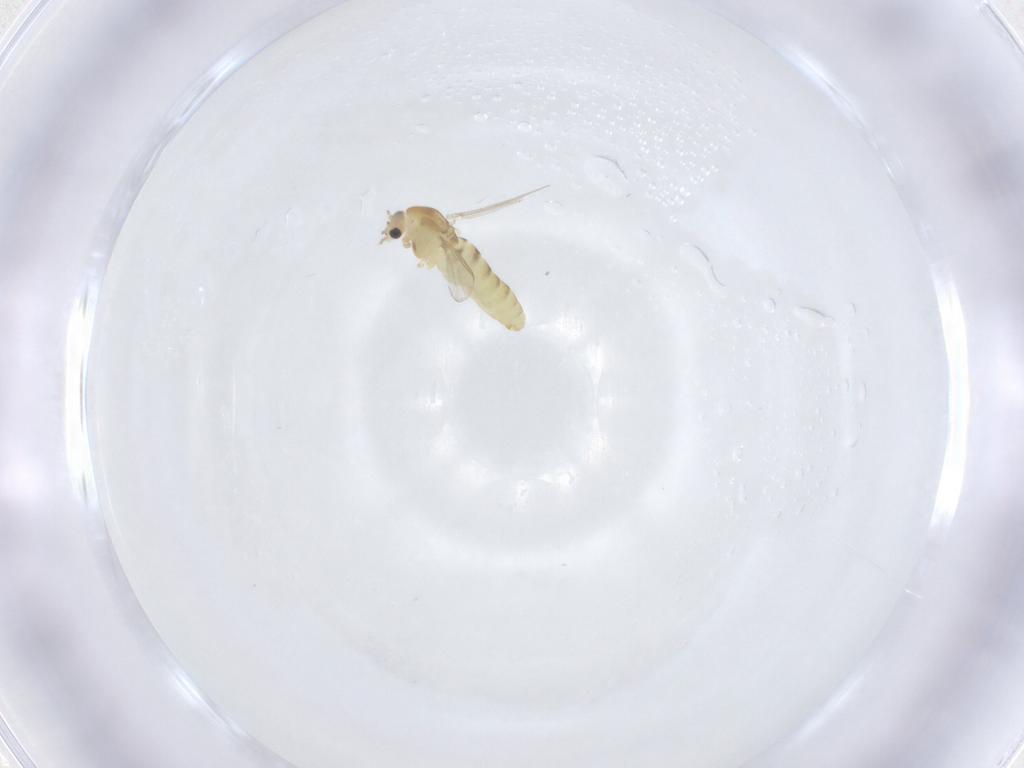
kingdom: Animalia
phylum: Arthropoda
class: Insecta
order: Diptera
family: Chironomidae
